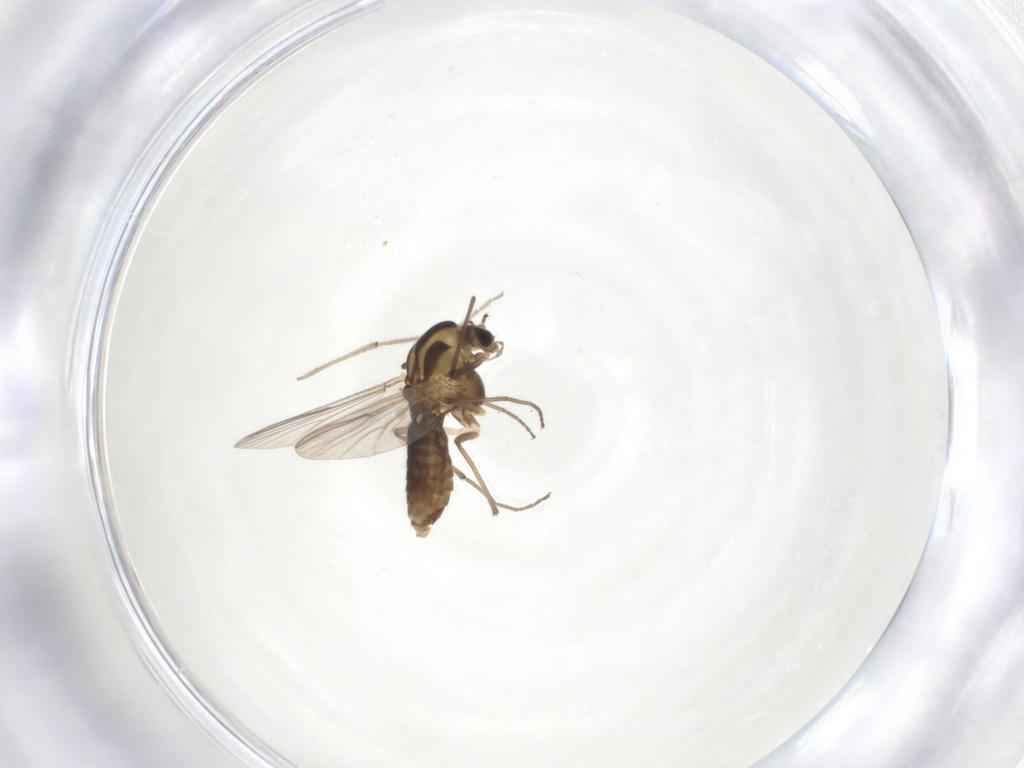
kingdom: Animalia
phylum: Arthropoda
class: Insecta
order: Diptera
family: Chironomidae
